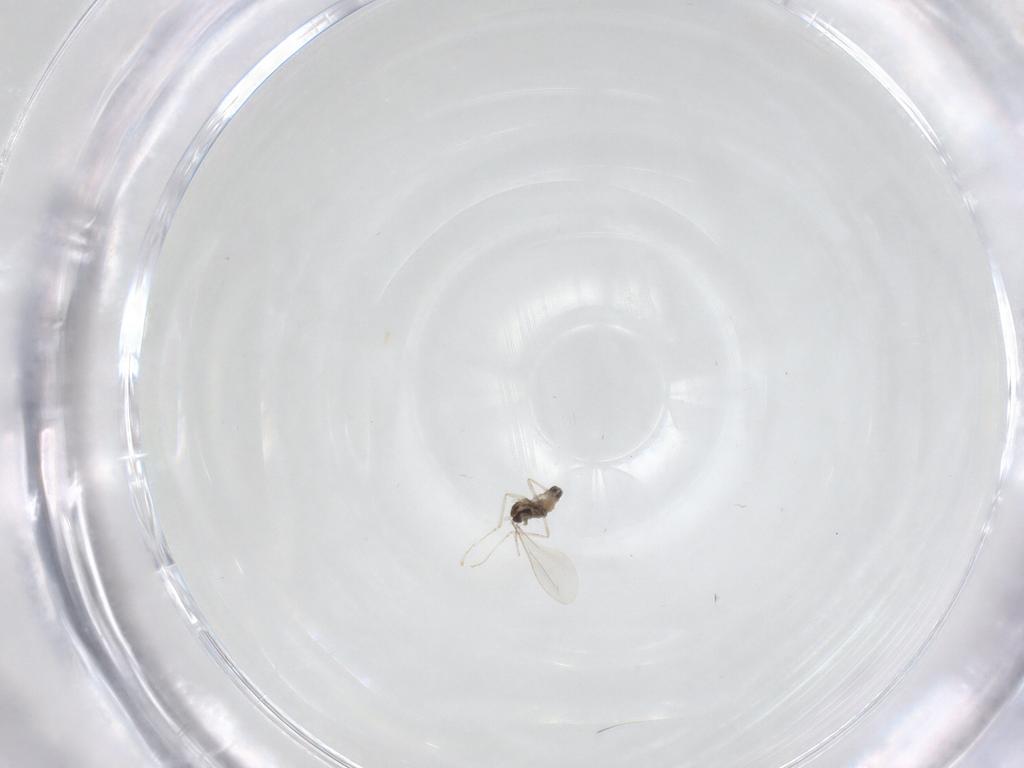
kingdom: Animalia
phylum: Arthropoda
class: Insecta
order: Diptera
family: Cecidomyiidae
